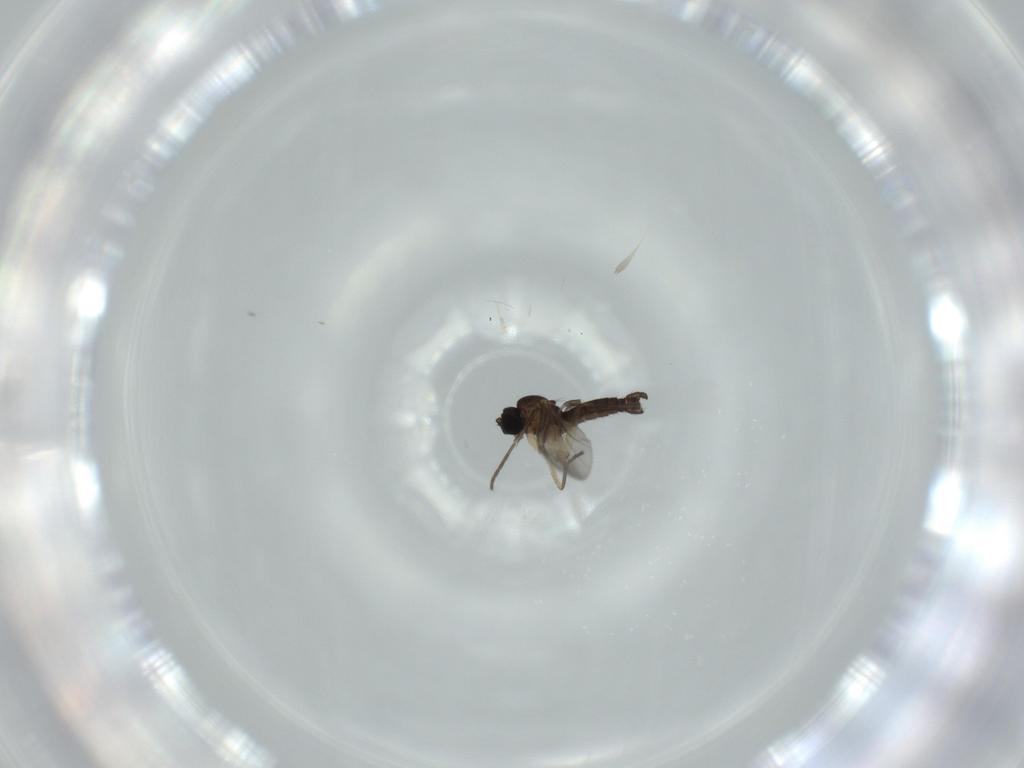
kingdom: Animalia
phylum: Arthropoda
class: Insecta
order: Diptera
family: Sciaridae
